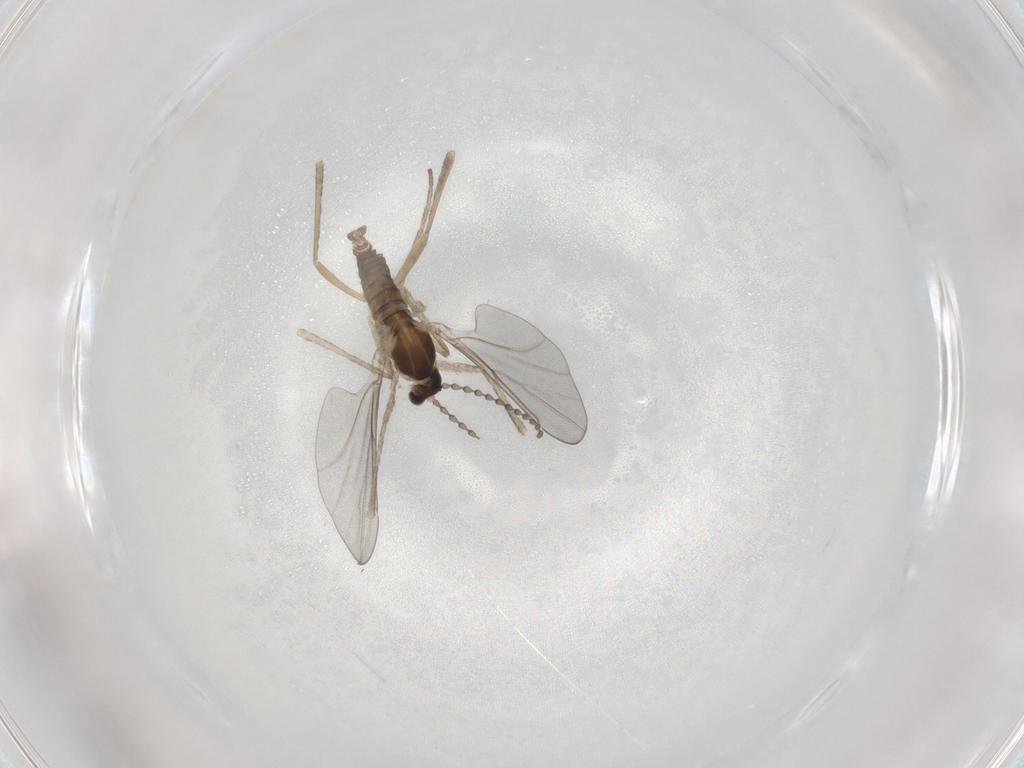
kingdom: Animalia
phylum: Arthropoda
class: Insecta
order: Diptera
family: Cecidomyiidae
